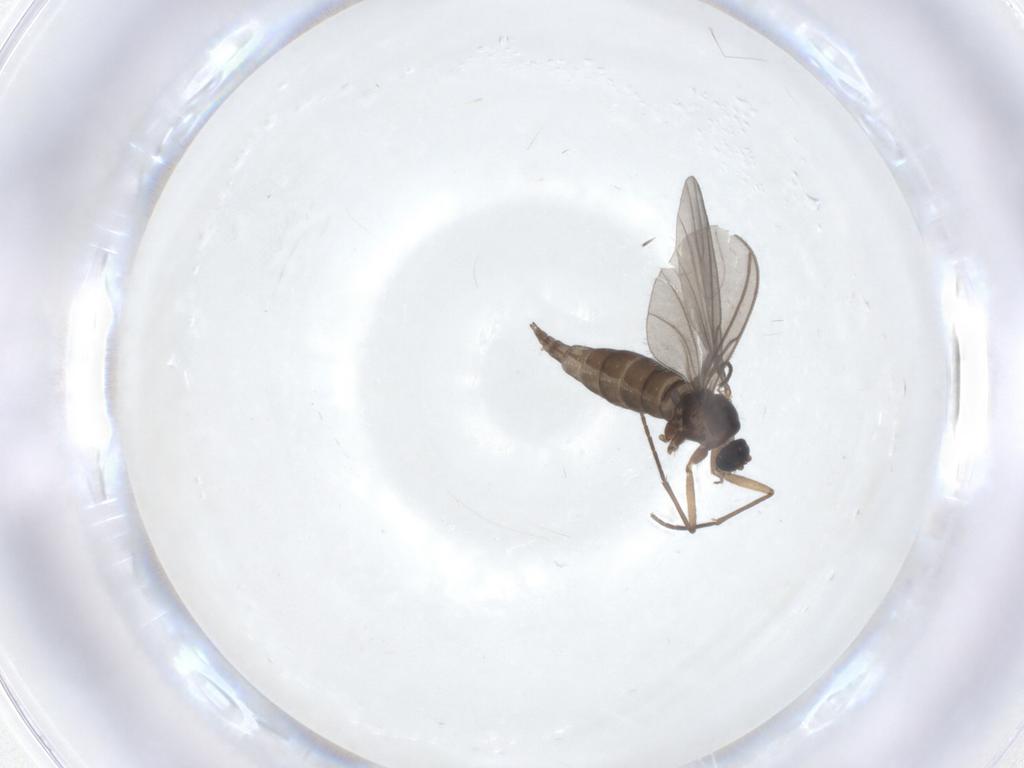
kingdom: Animalia
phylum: Arthropoda
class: Insecta
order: Diptera
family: Sciaridae
